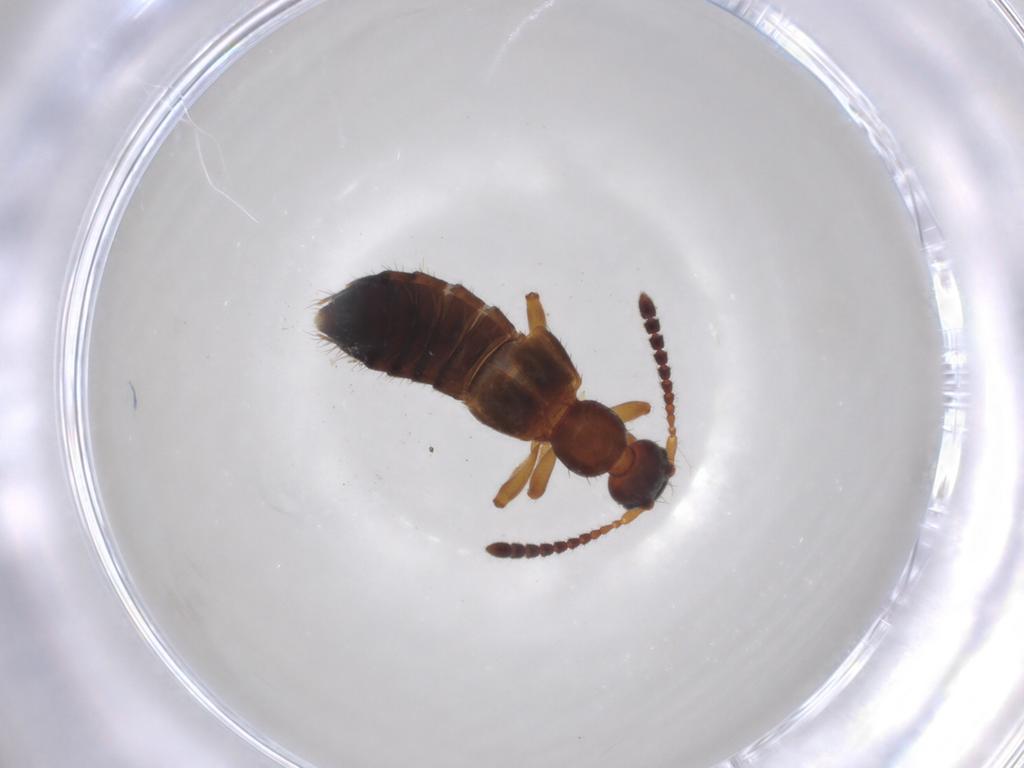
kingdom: Animalia
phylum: Arthropoda
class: Insecta
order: Coleoptera
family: Staphylinidae
